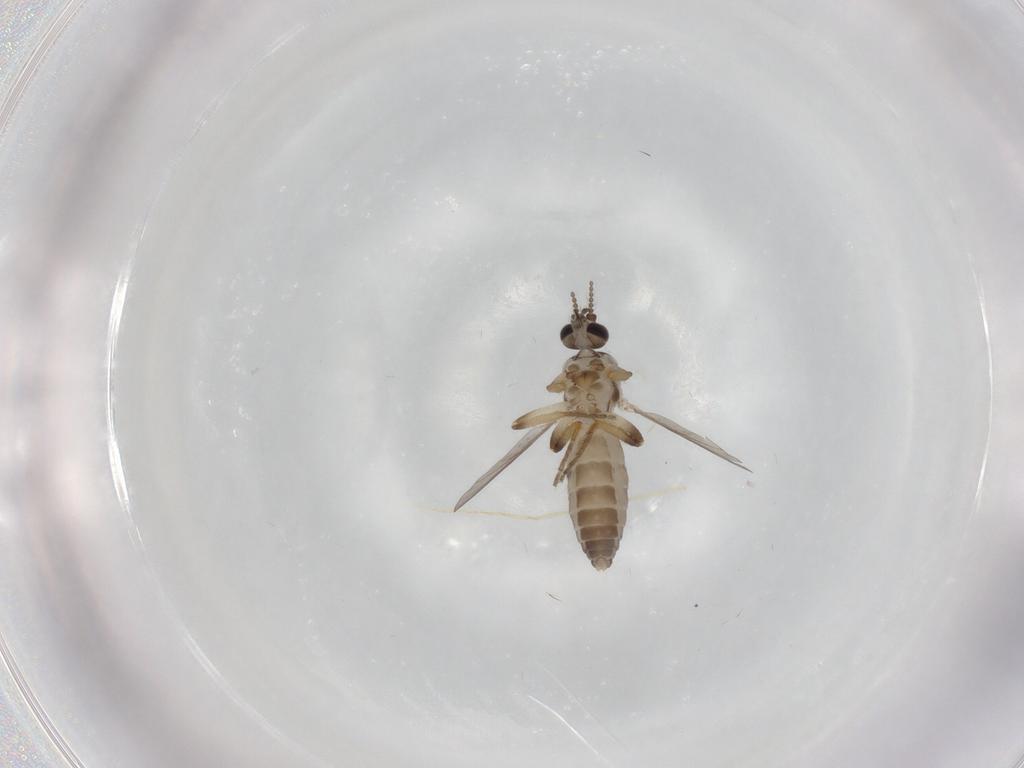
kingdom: Animalia
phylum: Arthropoda
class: Insecta
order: Diptera
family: Ceratopogonidae
